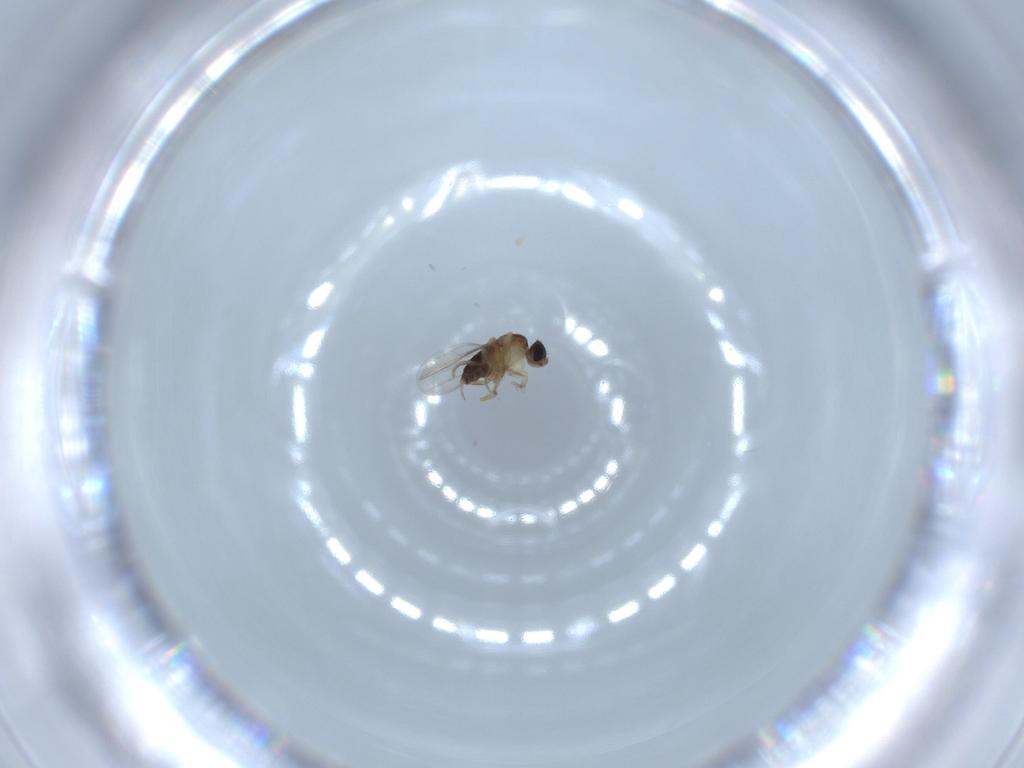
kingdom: Animalia
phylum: Arthropoda
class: Insecta
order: Diptera
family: Phoridae
